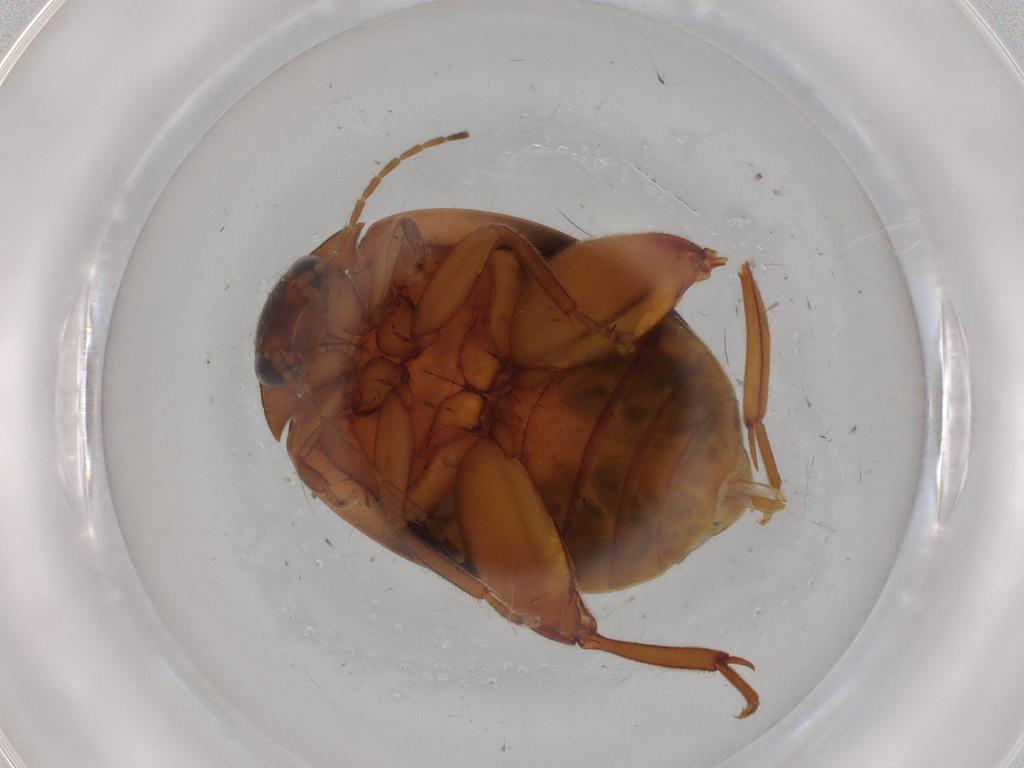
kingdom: Animalia
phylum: Arthropoda
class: Insecta
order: Coleoptera
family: Scirtidae
